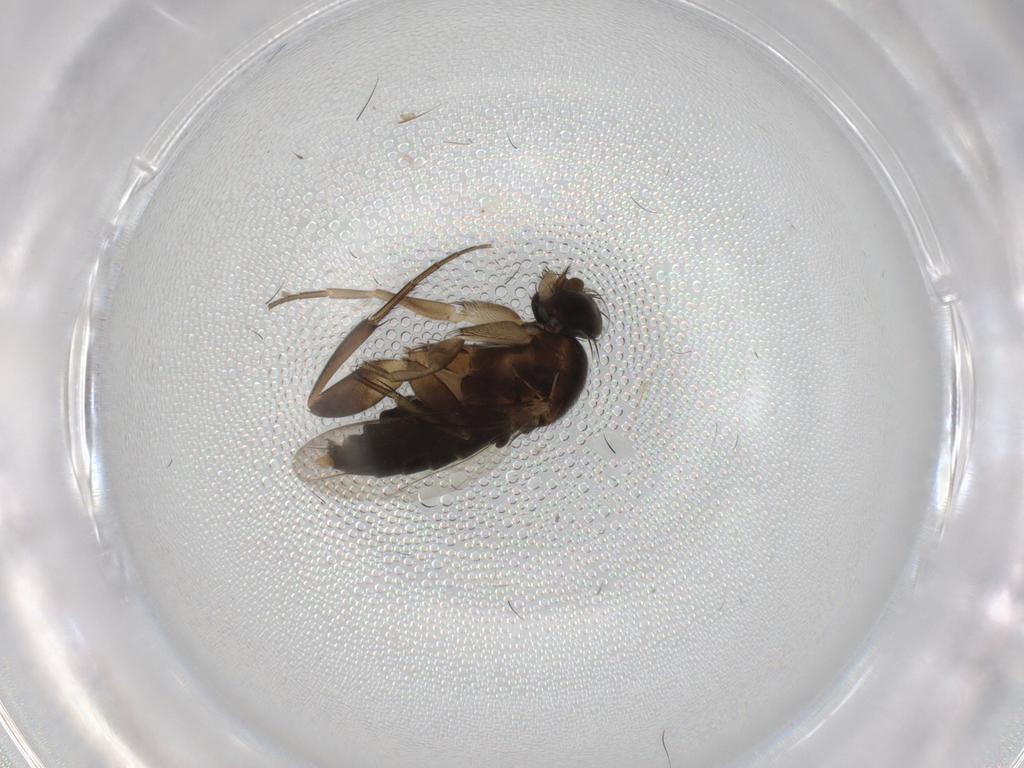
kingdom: Animalia
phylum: Arthropoda
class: Insecta
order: Diptera
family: Phoridae
